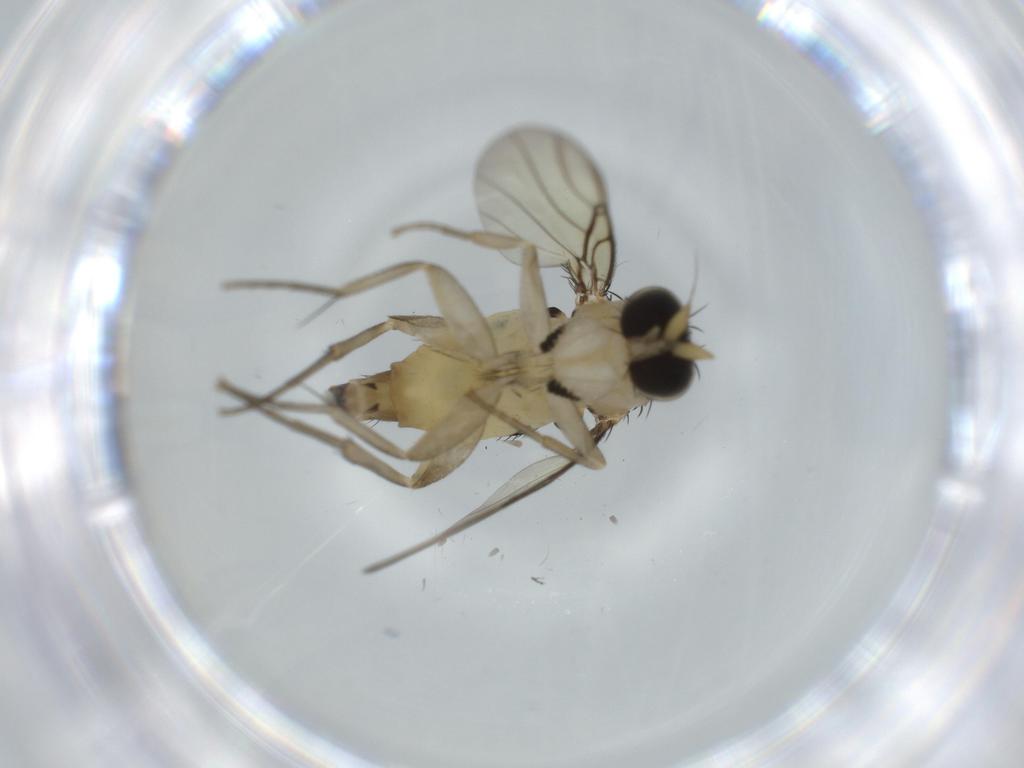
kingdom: Animalia
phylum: Arthropoda
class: Insecta
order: Diptera
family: Phoridae
